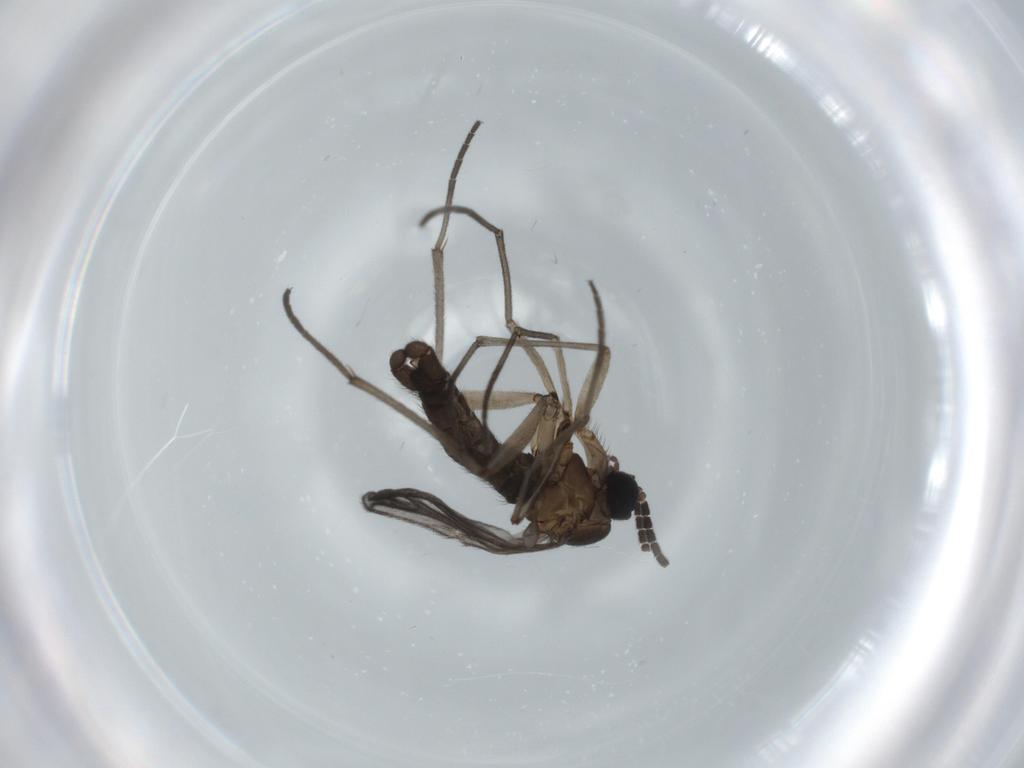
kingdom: Animalia
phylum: Arthropoda
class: Insecta
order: Diptera
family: Sciaridae
